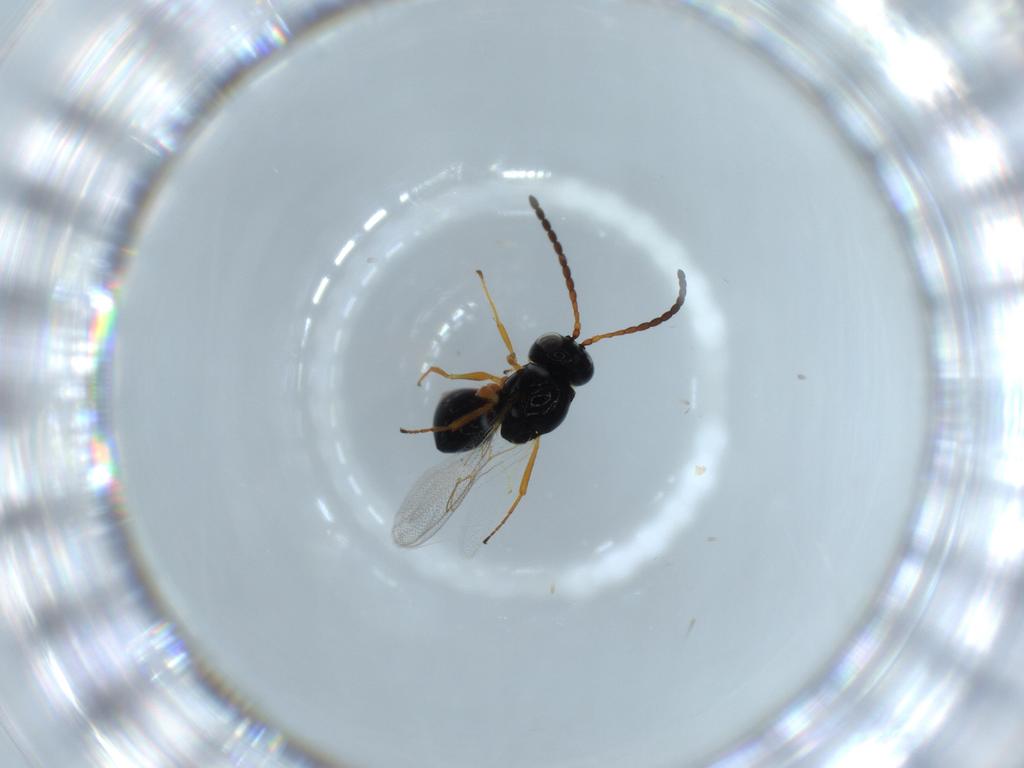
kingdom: Animalia
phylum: Arthropoda
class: Insecta
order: Hymenoptera
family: Figitidae
